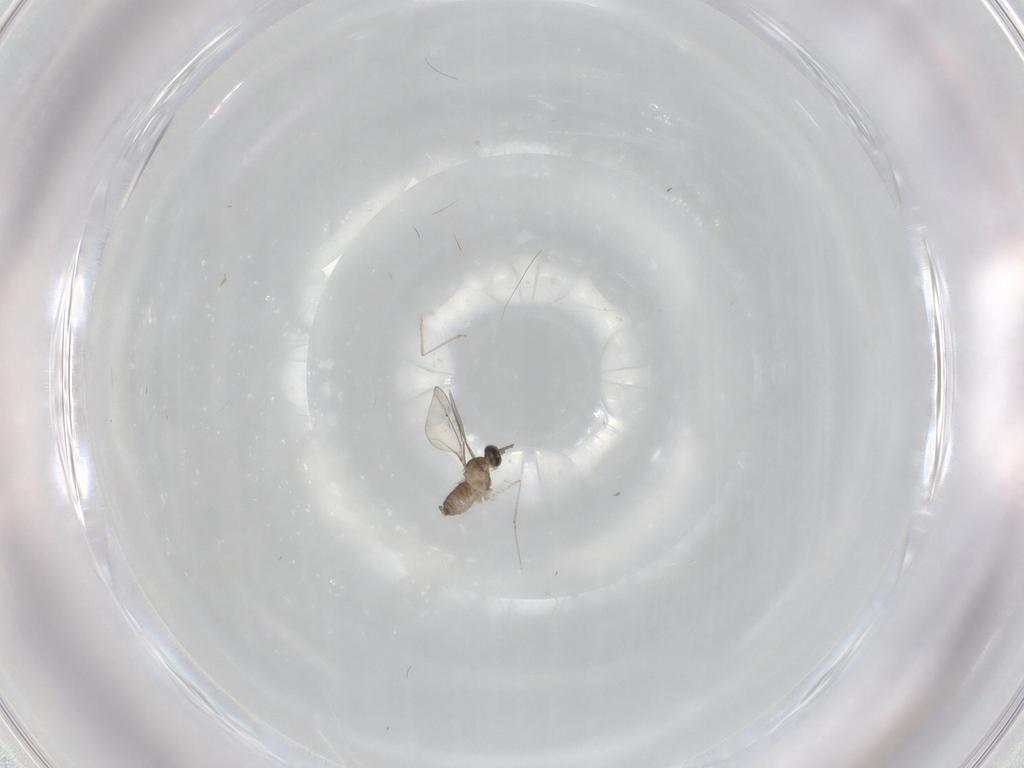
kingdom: Animalia
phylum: Arthropoda
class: Insecta
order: Diptera
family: Cecidomyiidae
